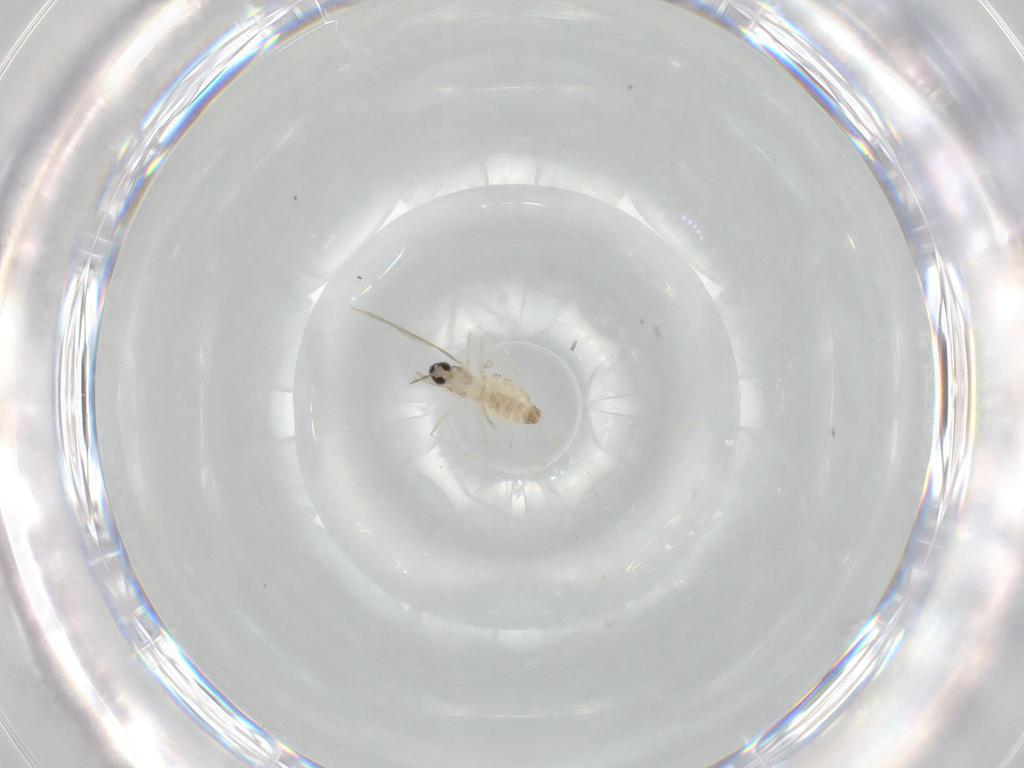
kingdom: Animalia
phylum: Arthropoda
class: Insecta
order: Diptera
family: Cecidomyiidae
